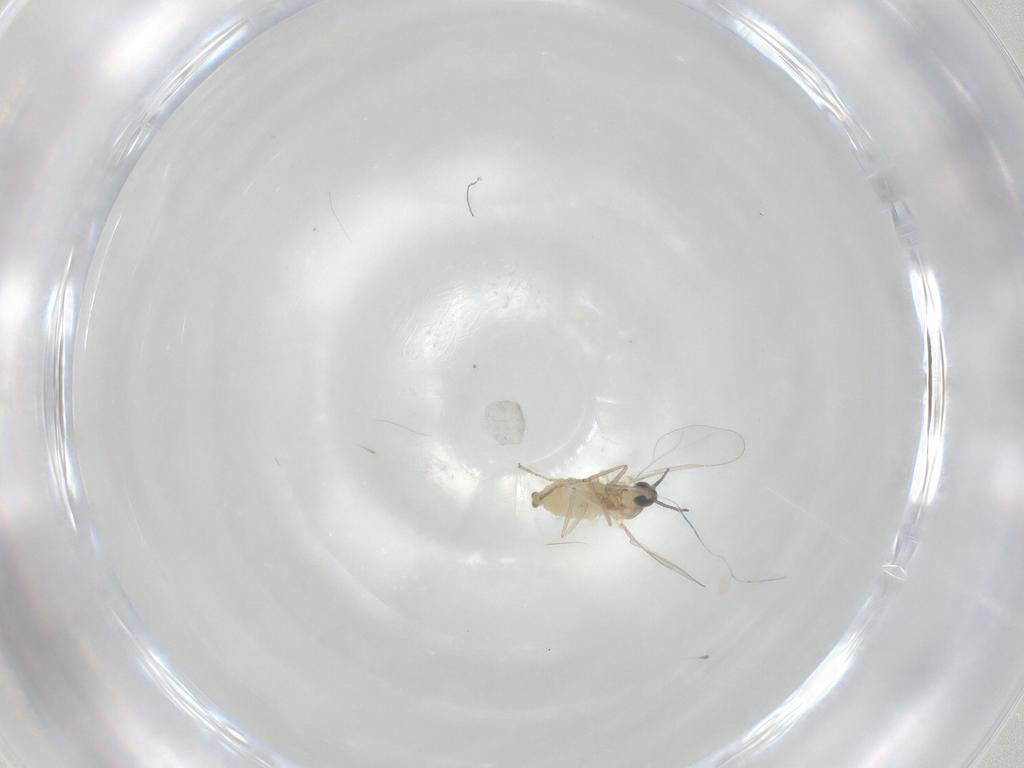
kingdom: Animalia
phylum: Arthropoda
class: Insecta
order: Diptera
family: Cecidomyiidae
